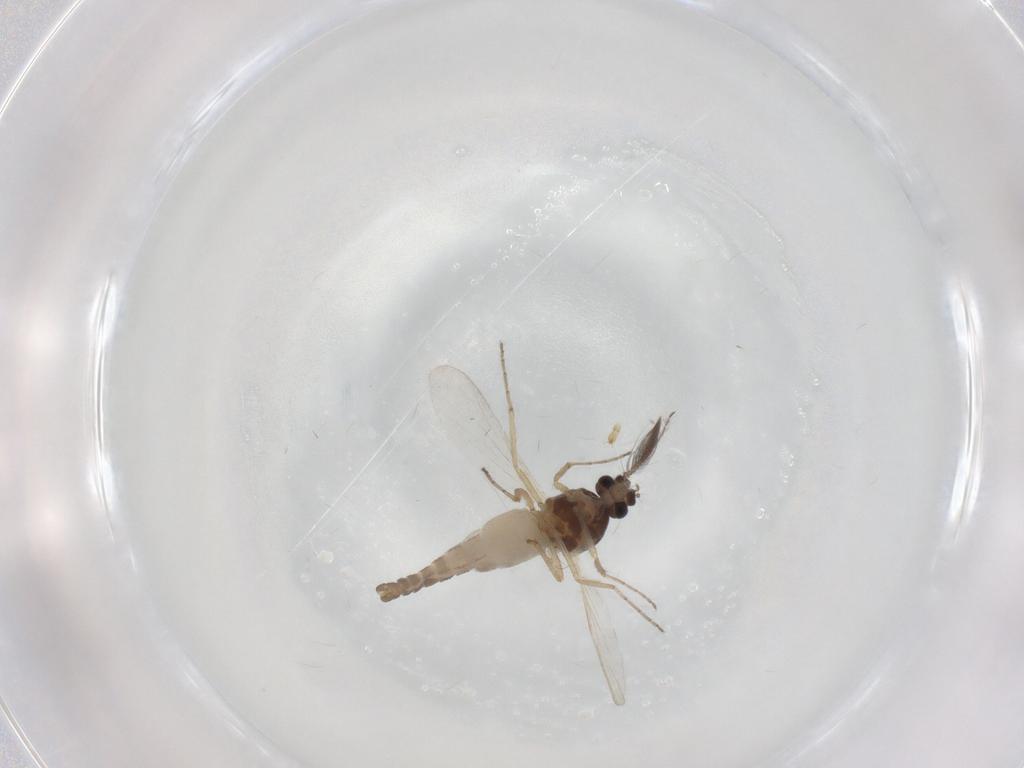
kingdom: Animalia
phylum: Arthropoda
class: Insecta
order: Diptera
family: Ceratopogonidae
